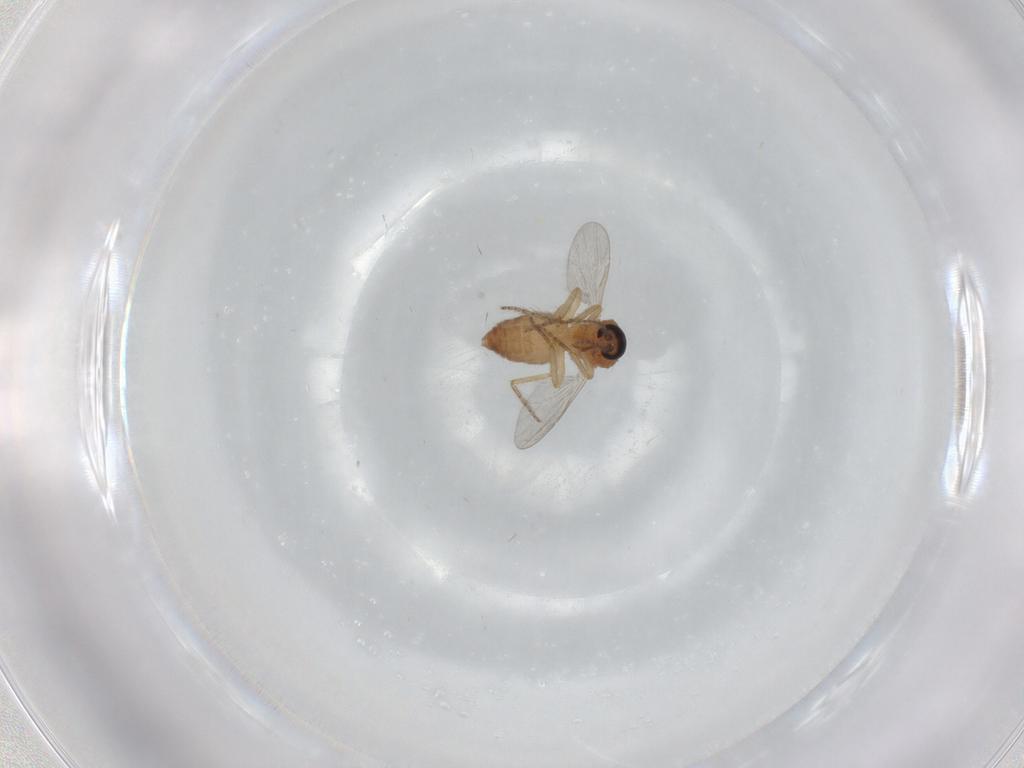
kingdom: Animalia
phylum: Arthropoda
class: Insecta
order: Diptera
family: Ceratopogonidae
